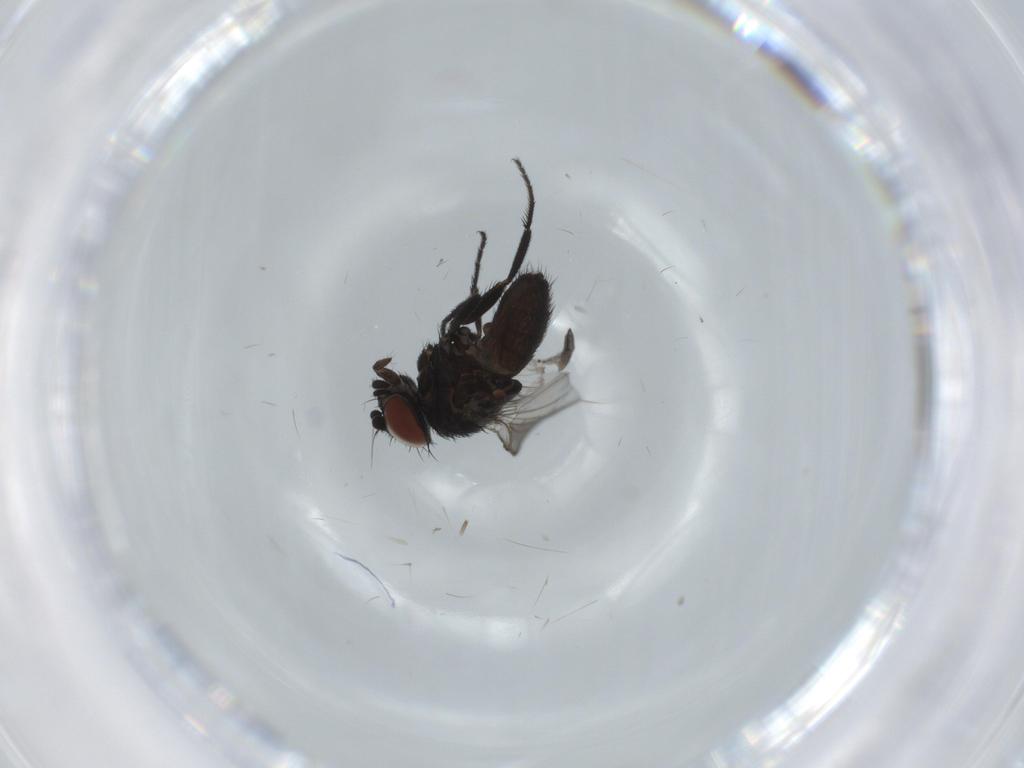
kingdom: Animalia
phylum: Arthropoda
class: Insecta
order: Diptera
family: Milichiidae
